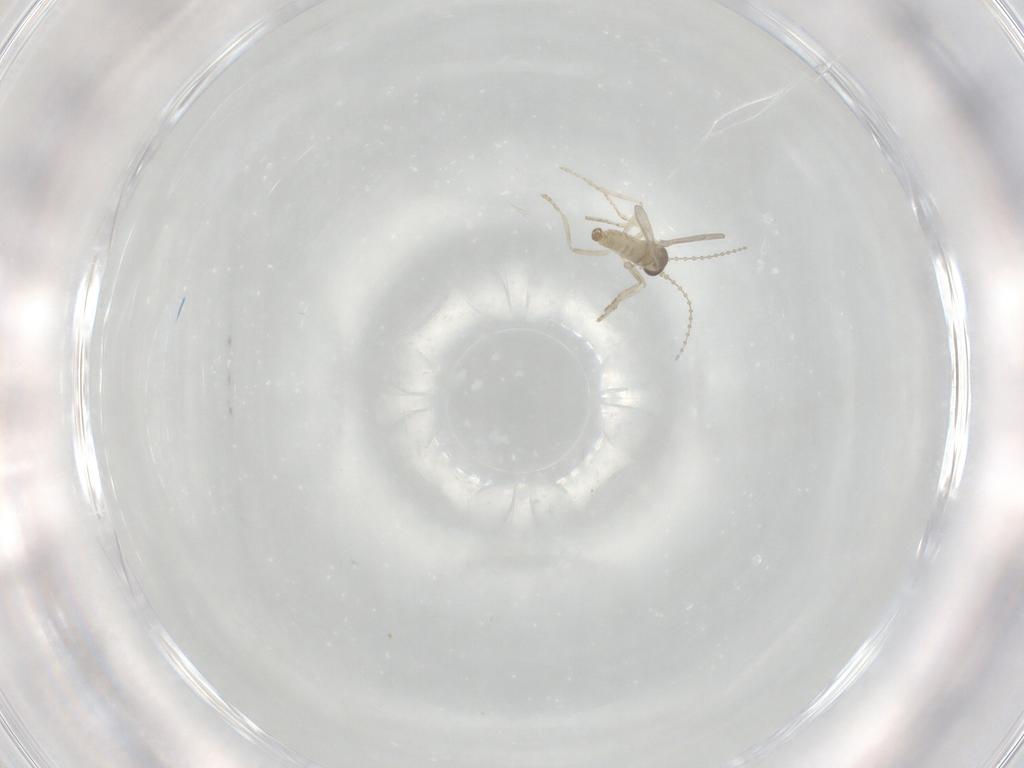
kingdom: Animalia
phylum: Arthropoda
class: Insecta
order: Diptera
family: Cecidomyiidae
